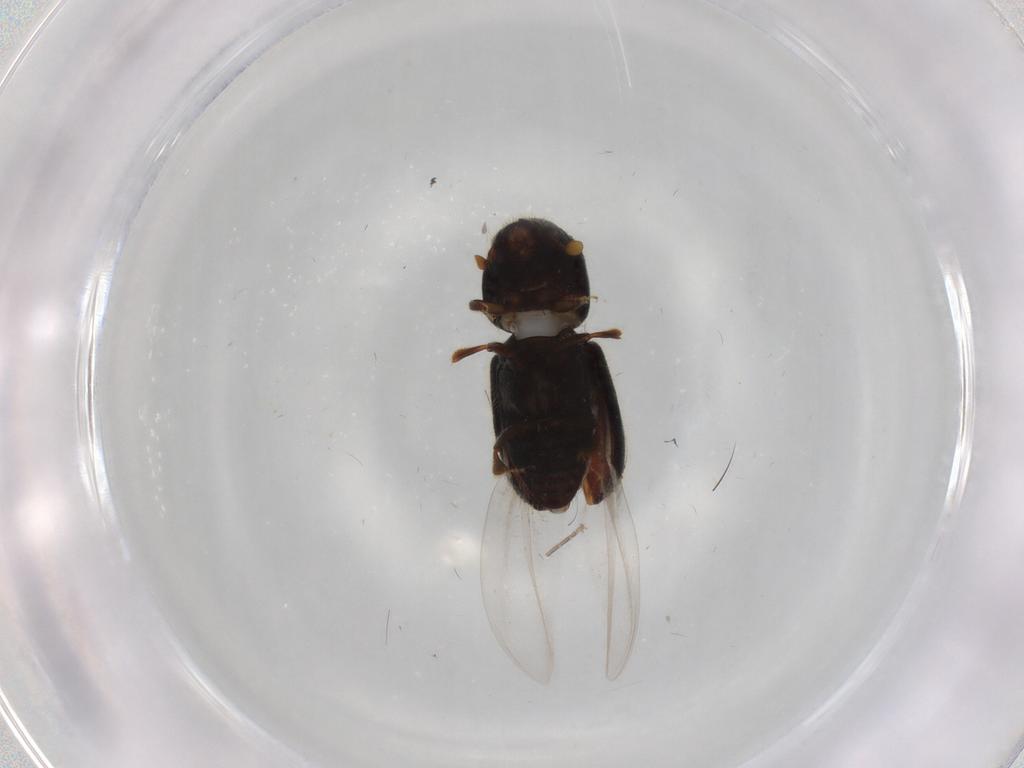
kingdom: Animalia
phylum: Arthropoda
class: Insecta
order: Coleoptera
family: Curculionidae
